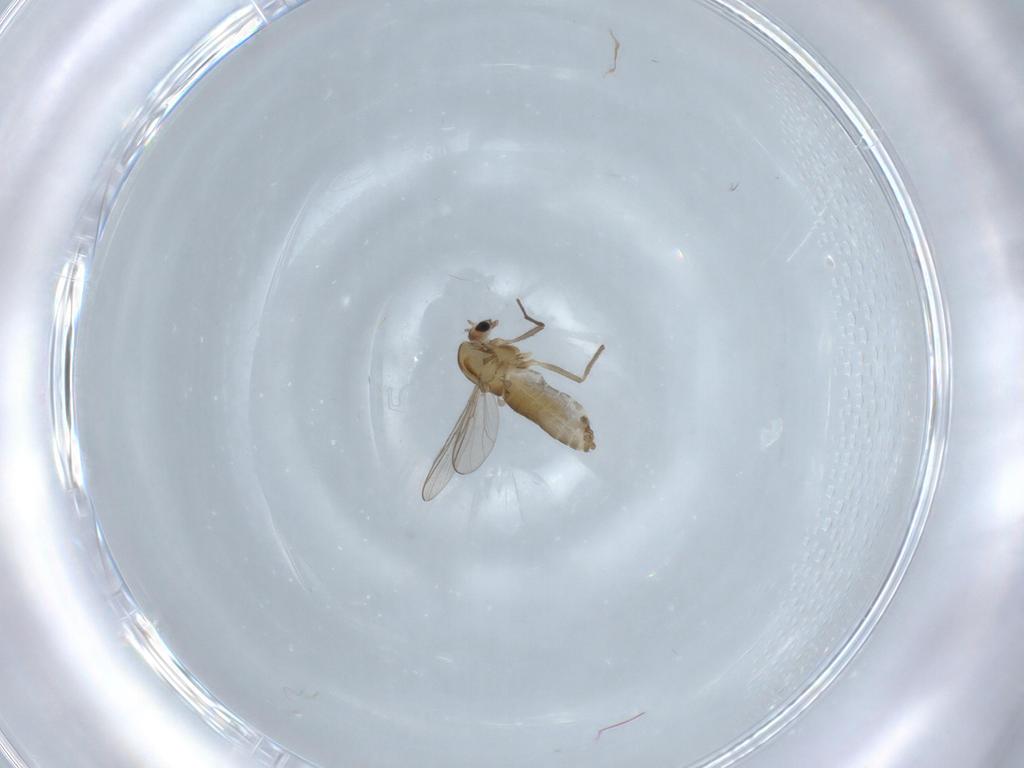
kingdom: Animalia
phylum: Arthropoda
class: Insecta
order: Diptera
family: Chironomidae
